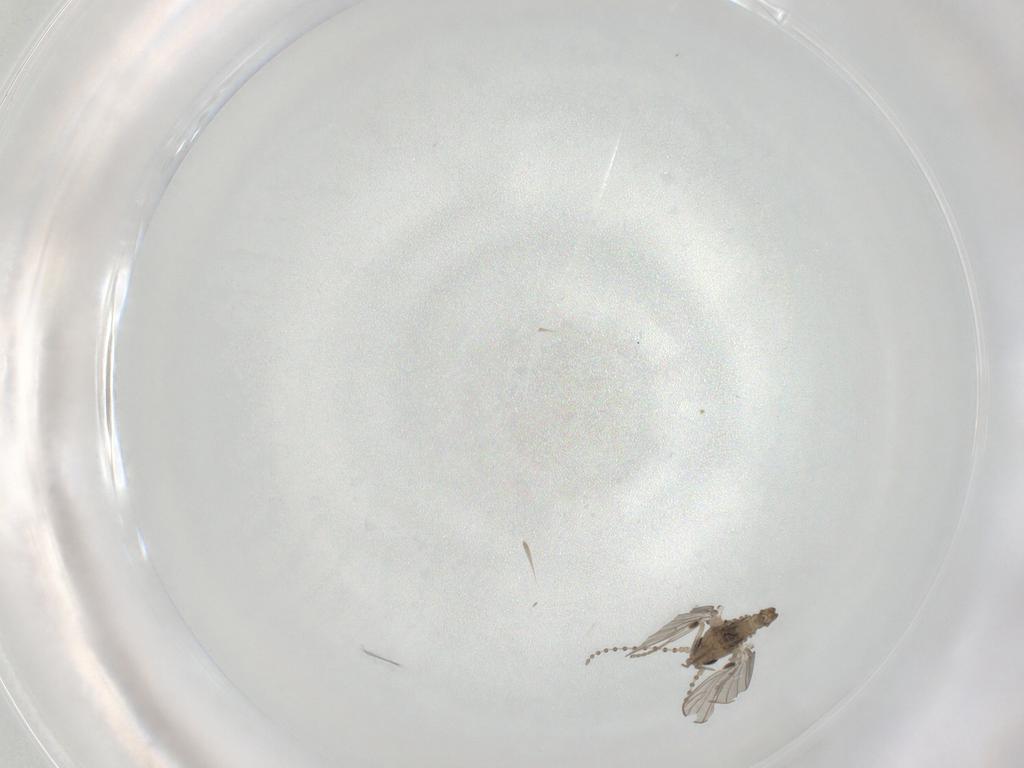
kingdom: Animalia
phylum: Arthropoda
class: Insecta
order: Diptera
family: Psychodidae
